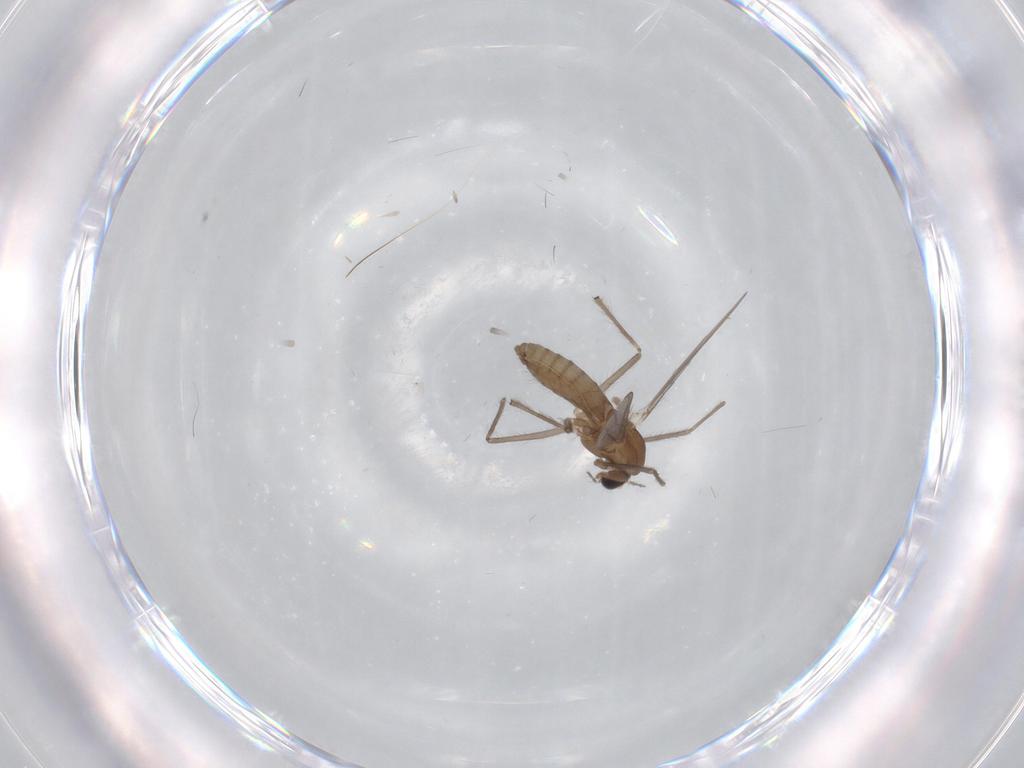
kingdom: Animalia
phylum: Arthropoda
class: Insecta
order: Diptera
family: Chironomidae
